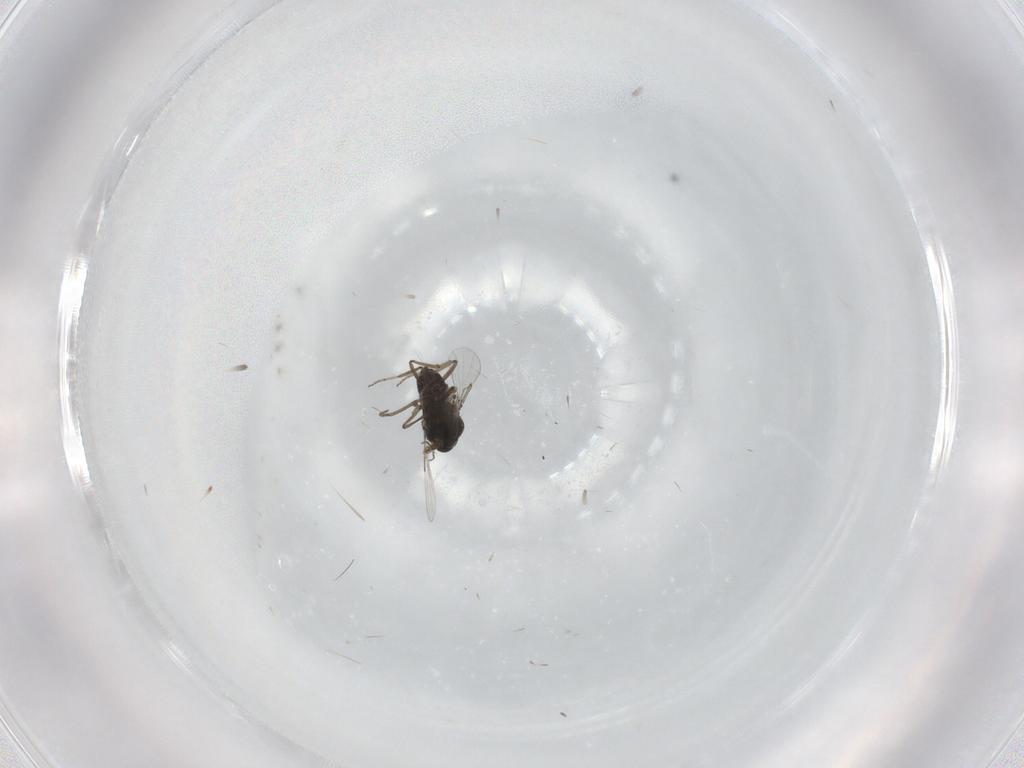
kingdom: Animalia
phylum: Arthropoda
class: Insecta
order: Diptera
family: Ceratopogonidae
